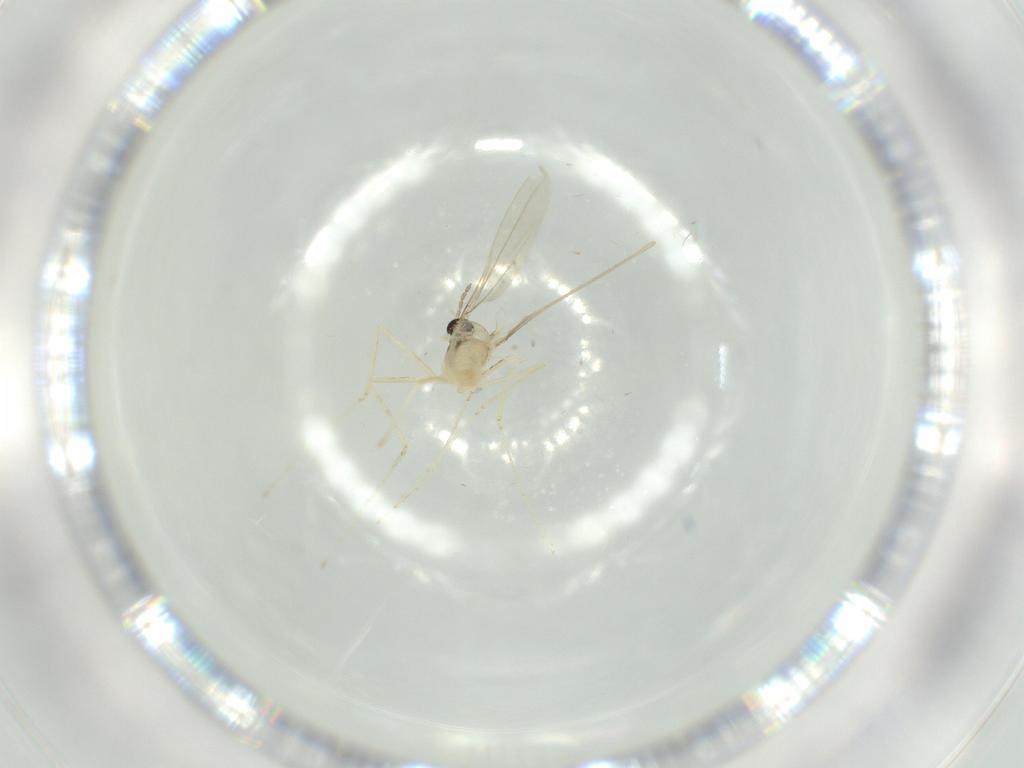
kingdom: Animalia
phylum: Arthropoda
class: Insecta
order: Diptera
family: Cecidomyiidae
